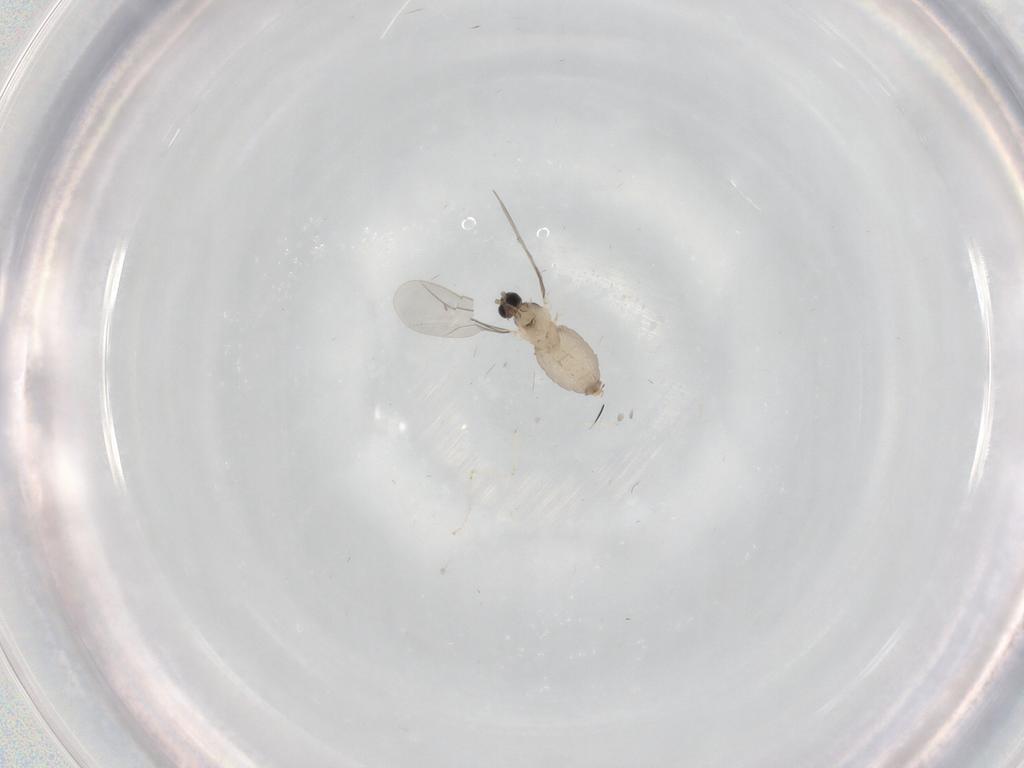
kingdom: Animalia
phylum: Arthropoda
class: Insecta
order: Diptera
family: Cecidomyiidae
